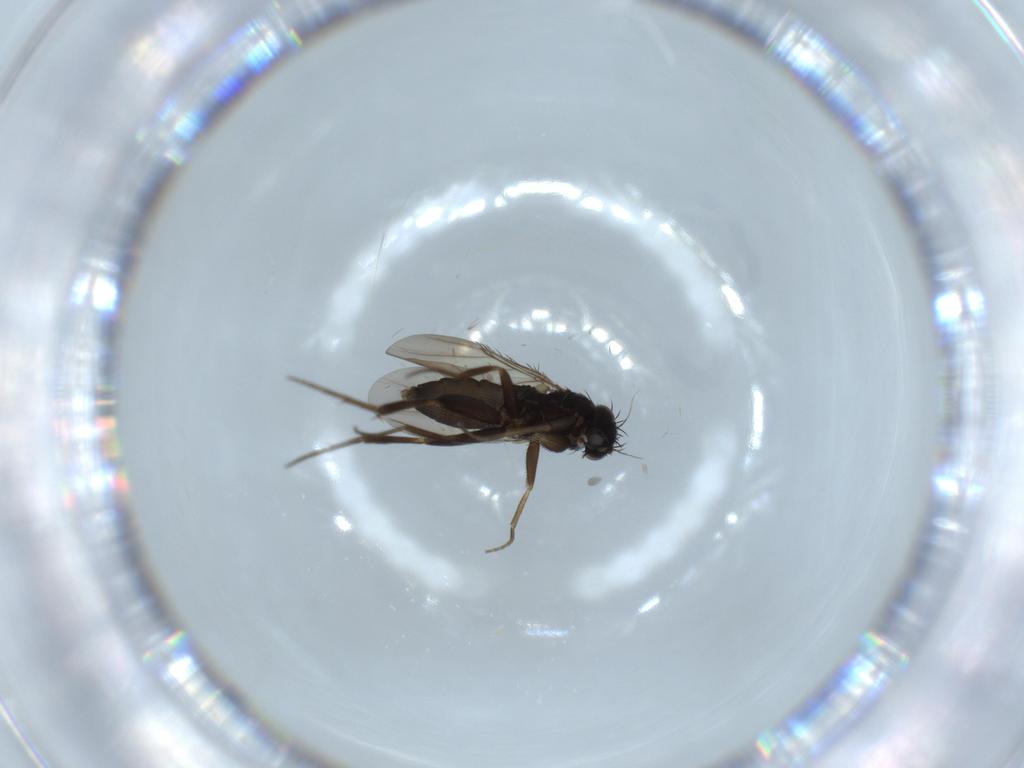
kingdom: Animalia
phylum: Arthropoda
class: Insecta
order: Diptera
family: Phoridae
